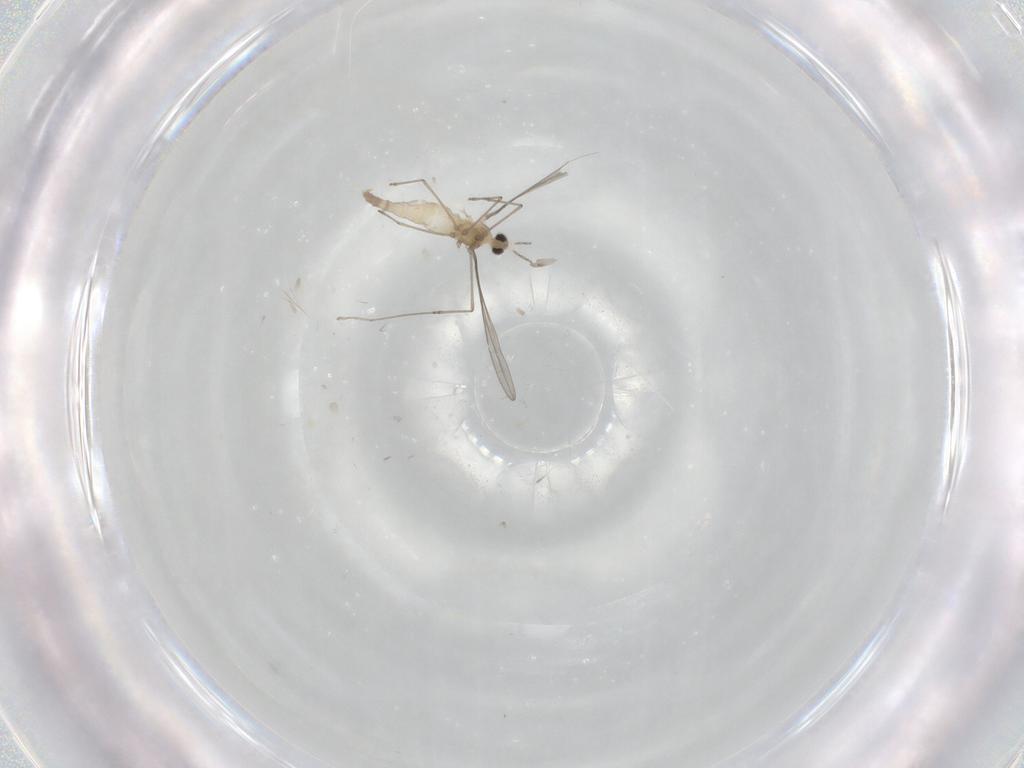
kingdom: Animalia
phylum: Arthropoda
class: Insecta
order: Diptera
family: Cecidomyiidae
